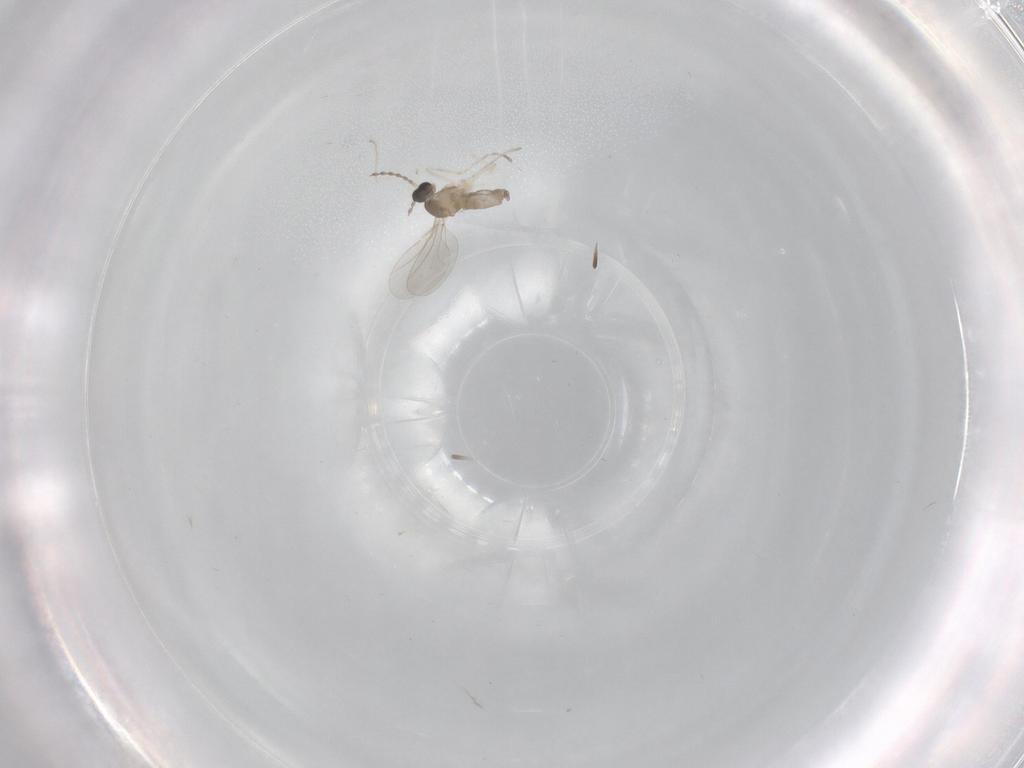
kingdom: Animalia
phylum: Arthropoda
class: Insecta
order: Diptera
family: Cecidomyiidae
